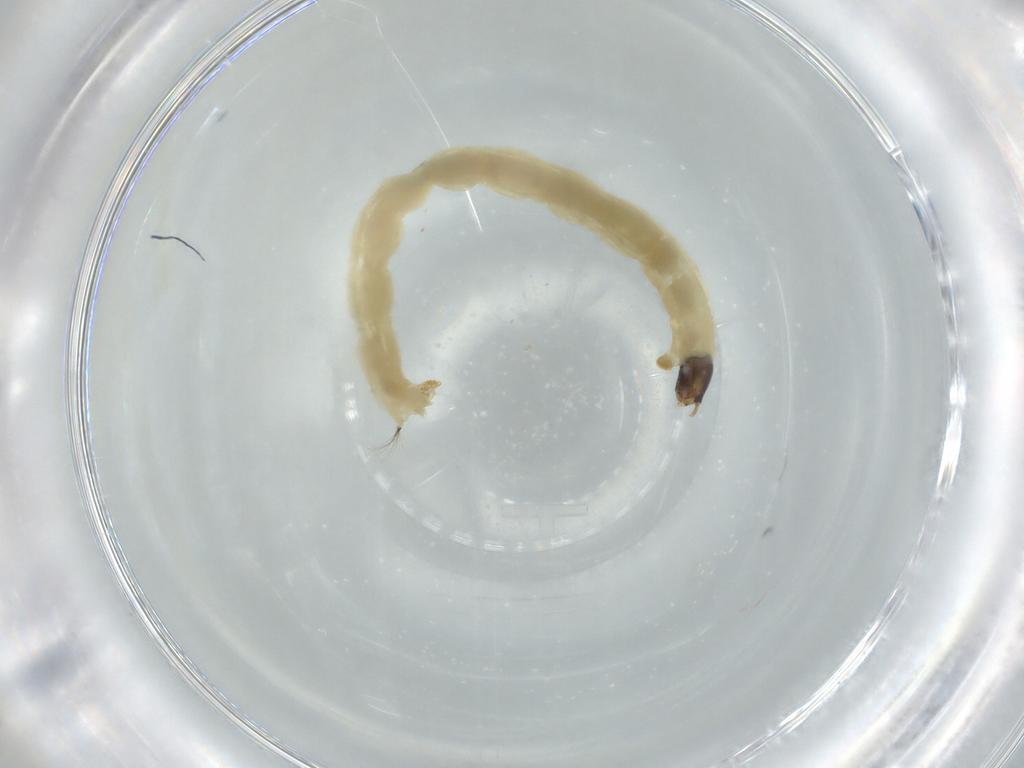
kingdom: Animalia
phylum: Arthropoda
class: Insecta
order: Diptera
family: Chironomidae
